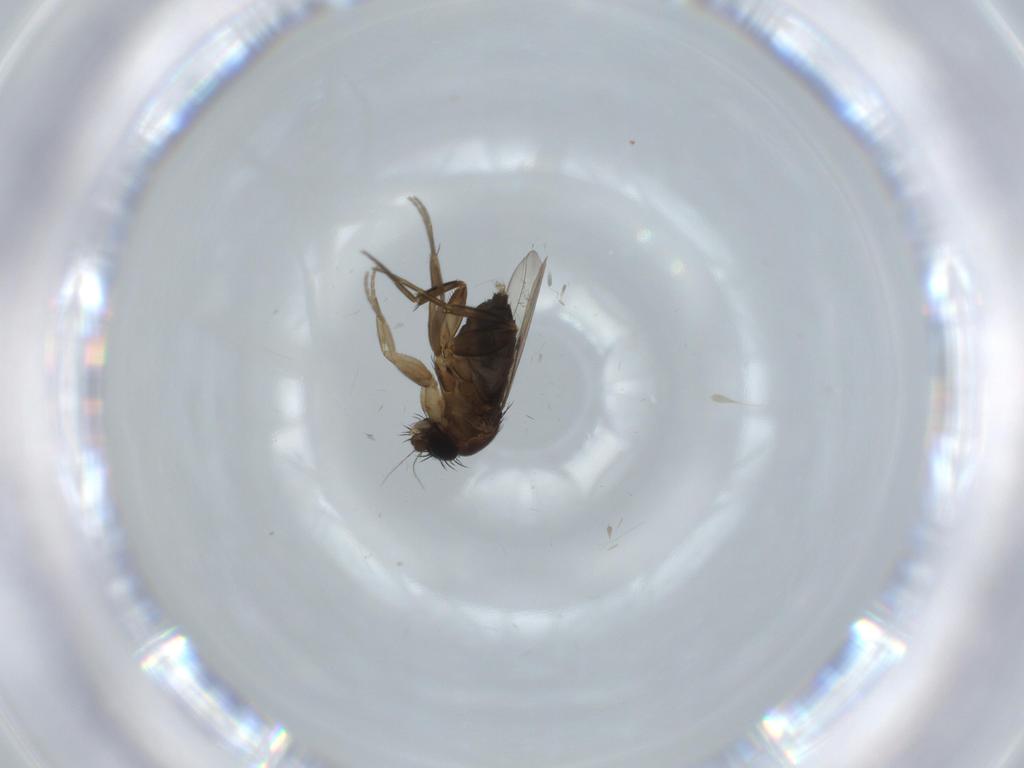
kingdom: Animalia
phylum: Arthropoda
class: Insecta
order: Diptera
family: Phoridae
